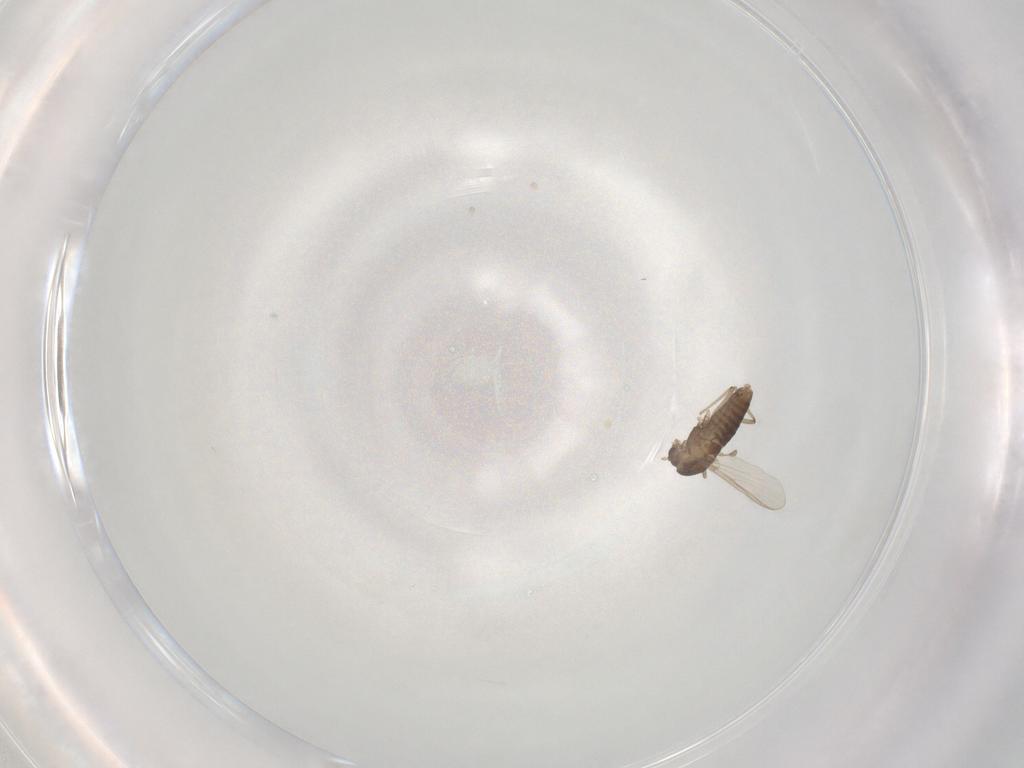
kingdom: Animalia
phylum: Arthropoda
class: Insecta
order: Diptera
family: Chironomidae
